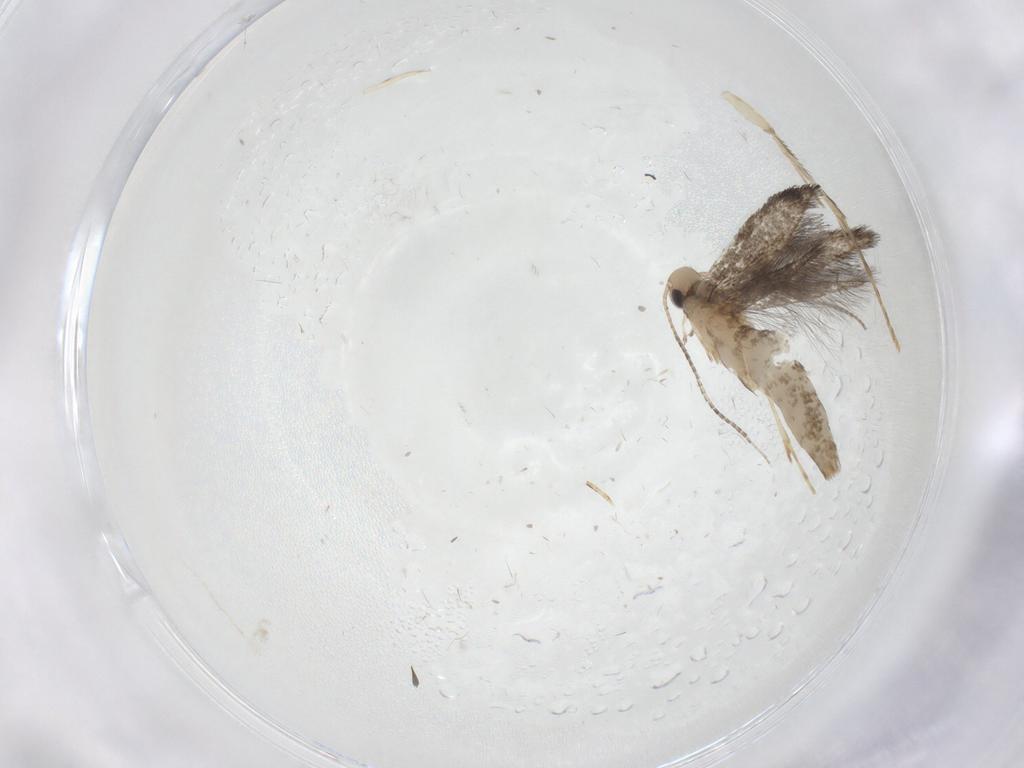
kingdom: Animalia
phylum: Arthropoda
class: Insecta
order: Lepidoptera
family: Gracillariidae
